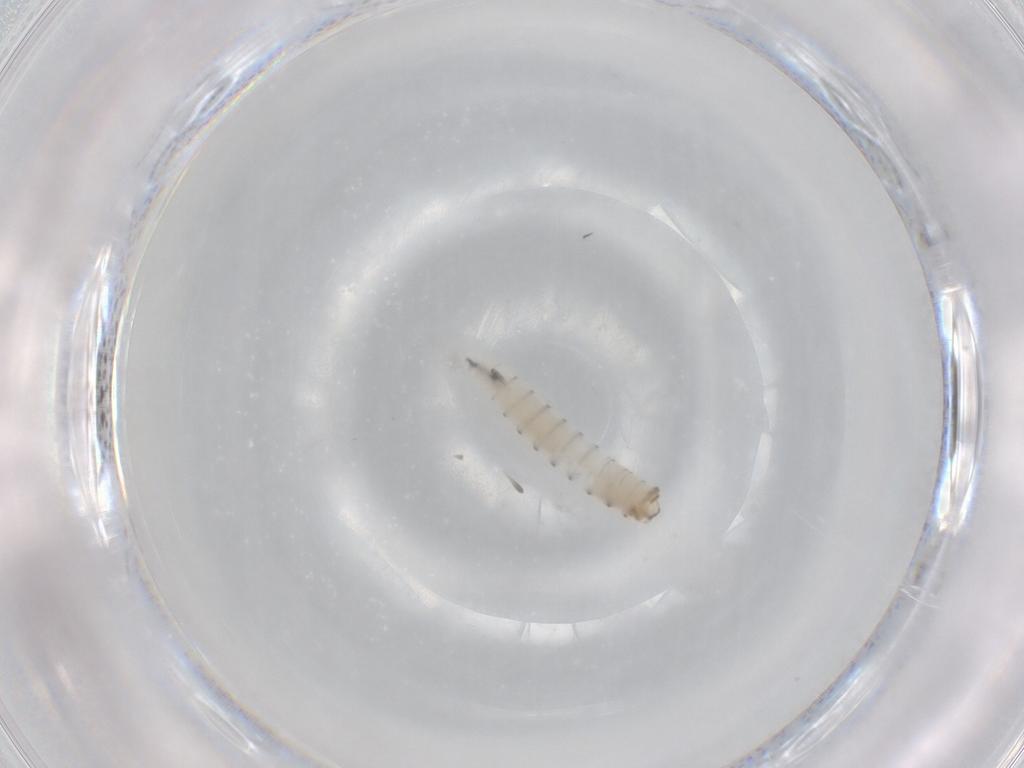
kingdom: Animalia
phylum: Arthropoda
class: Insecta
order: Diptera
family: Sarcophagidae
